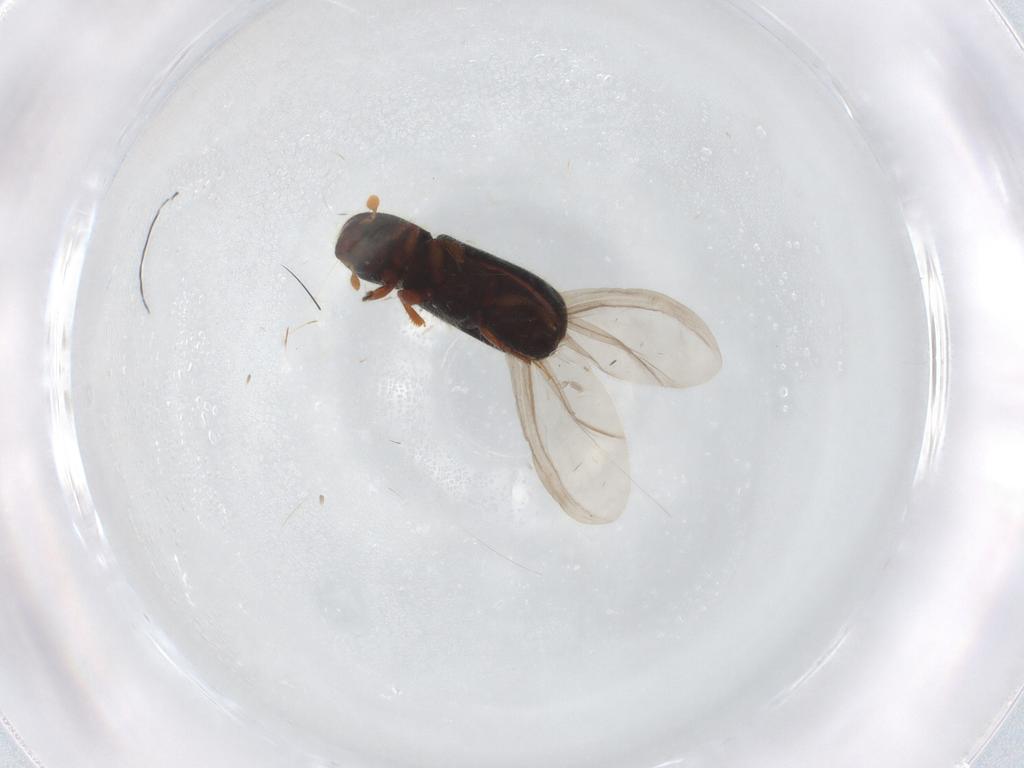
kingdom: Animalia
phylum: Arthropoda
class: Insecta
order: Coleoptera
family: Curculionidae
